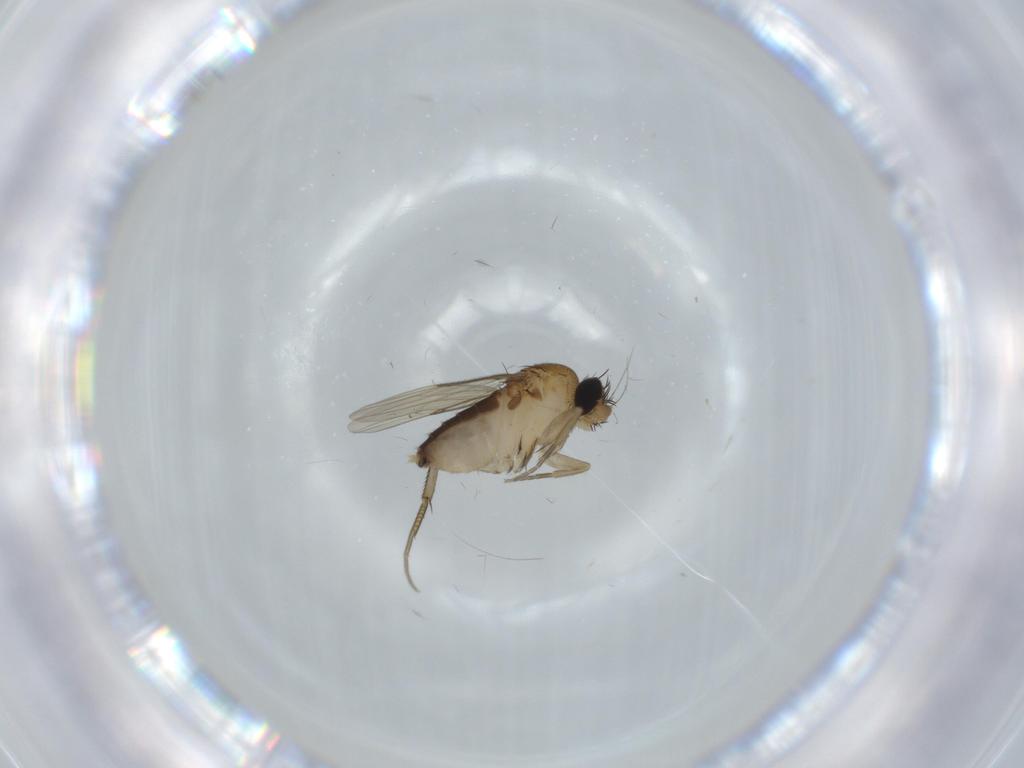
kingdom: Animalia
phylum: Arthropoda
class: Insecta
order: Diptera
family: Phoridae
